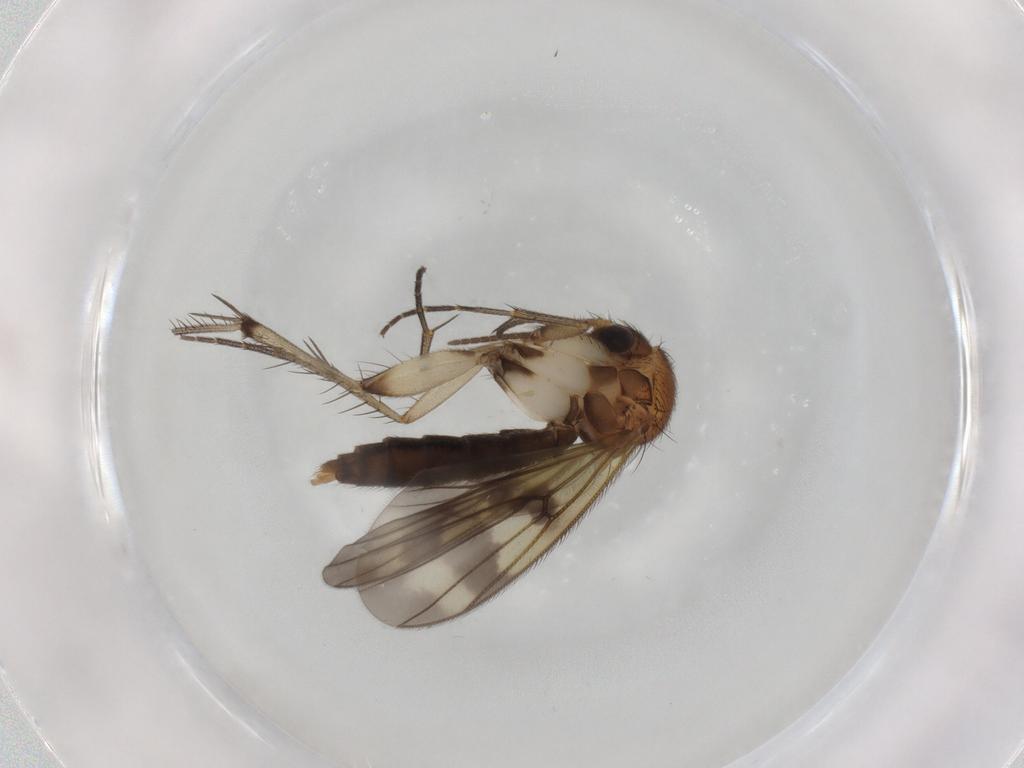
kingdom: Animalia
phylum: Arthropoda
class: Insecta
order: Diptera
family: Mycetophilidae
